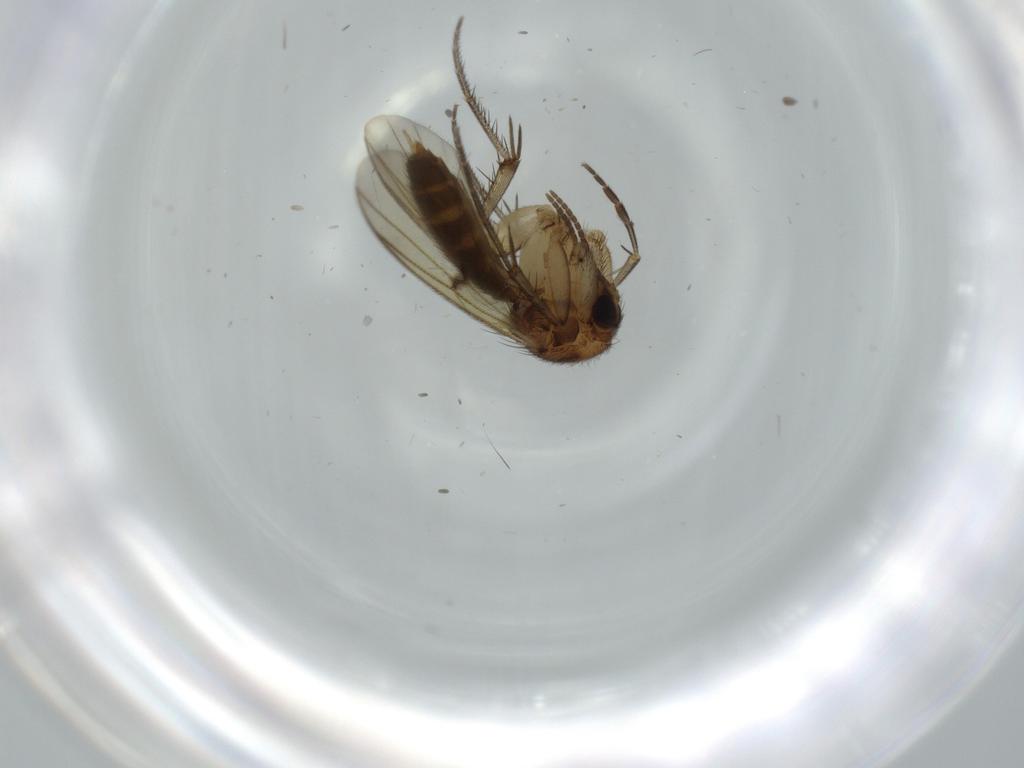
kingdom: Animalia
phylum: Arthropoda
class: Insecta
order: Diptera
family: Mycetophilidae
